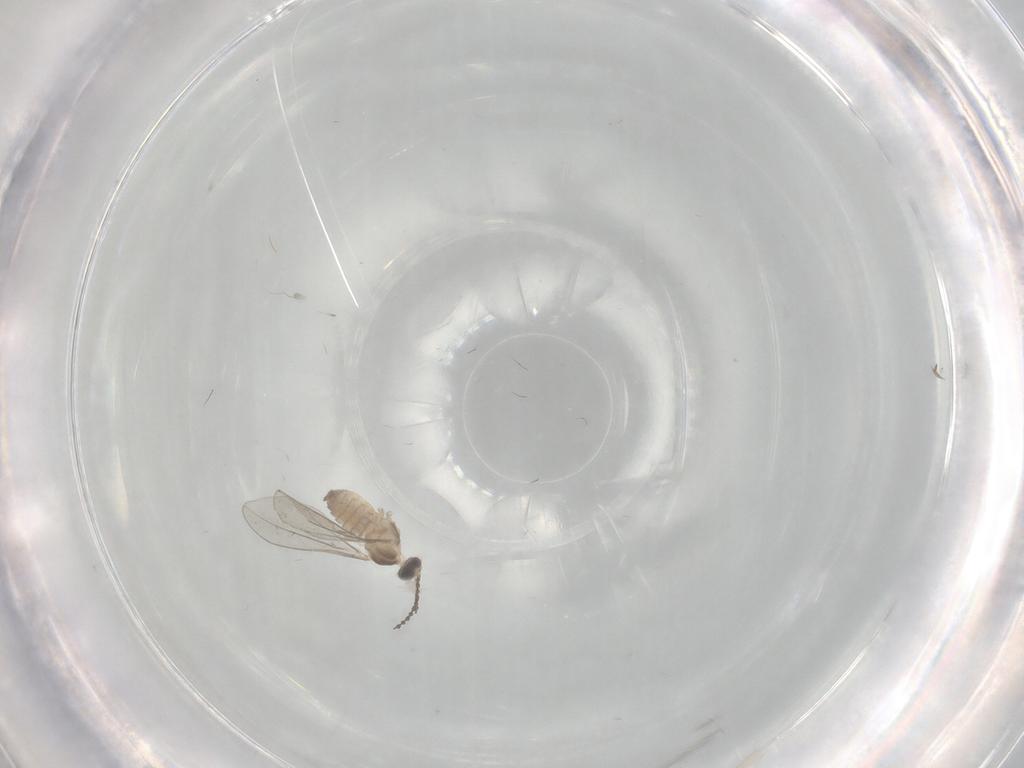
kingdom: Animalia
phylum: Arthropoda
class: Insecta
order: Diptera
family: Cecidomyiidae
